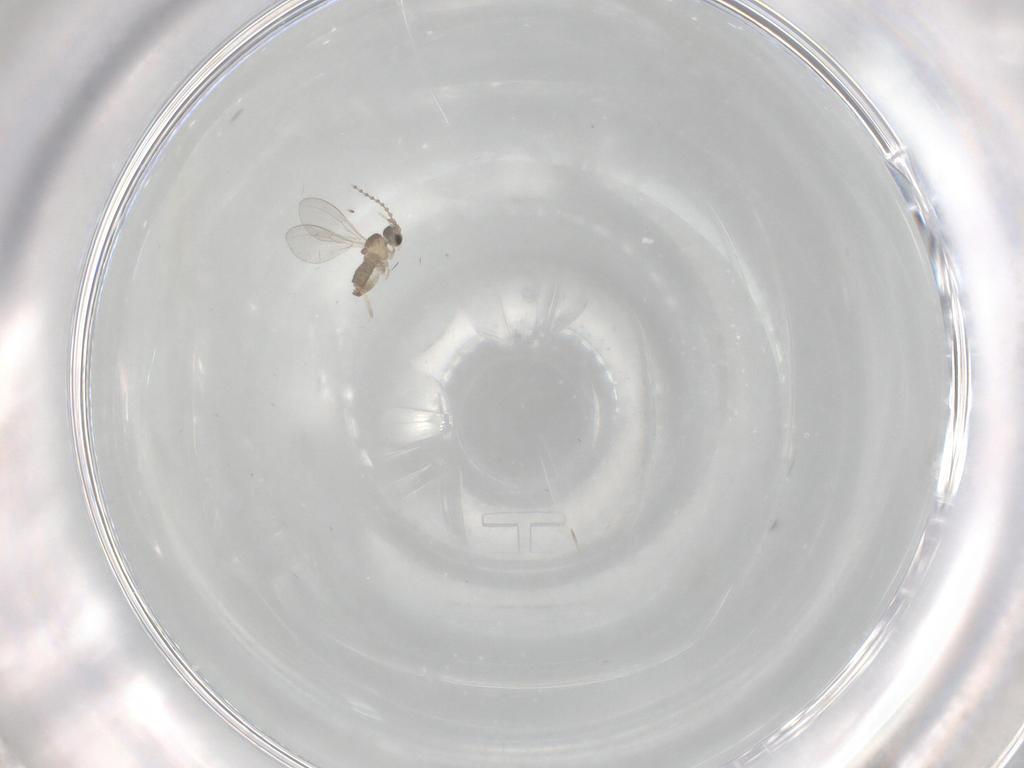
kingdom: Animalia
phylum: Arthropoda
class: Insecta
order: Diptera
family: Cecidomyiidae
